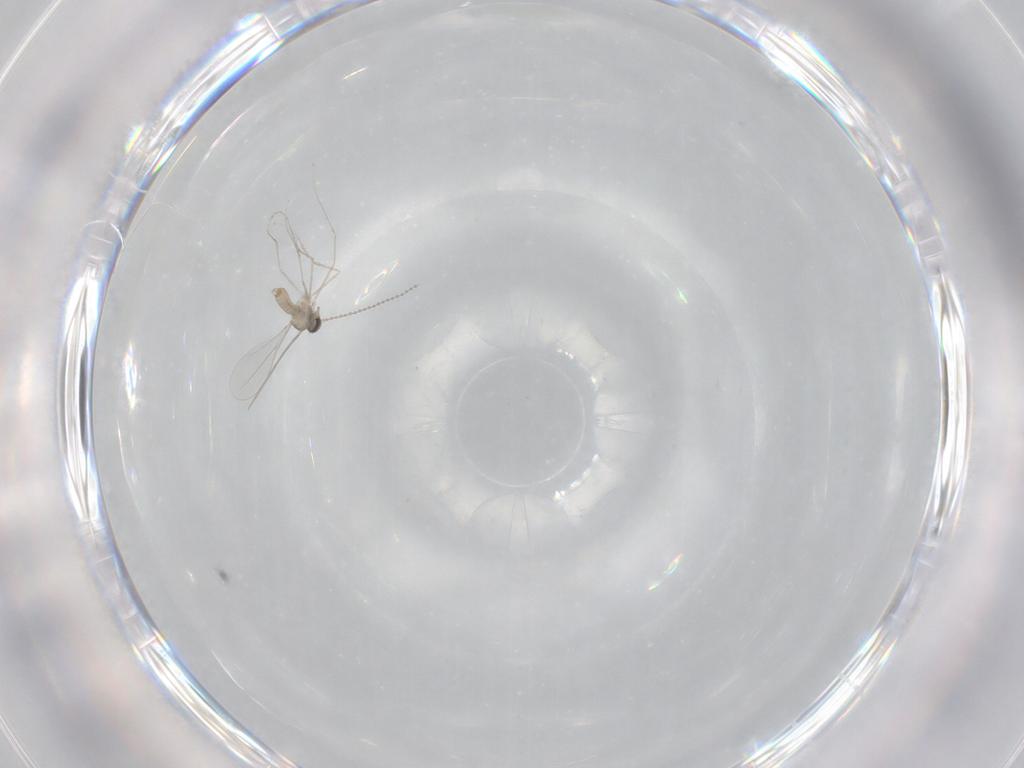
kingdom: Animalia
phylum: Arthropoda
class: Insecta
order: Diptera
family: Cecidomyiidae
